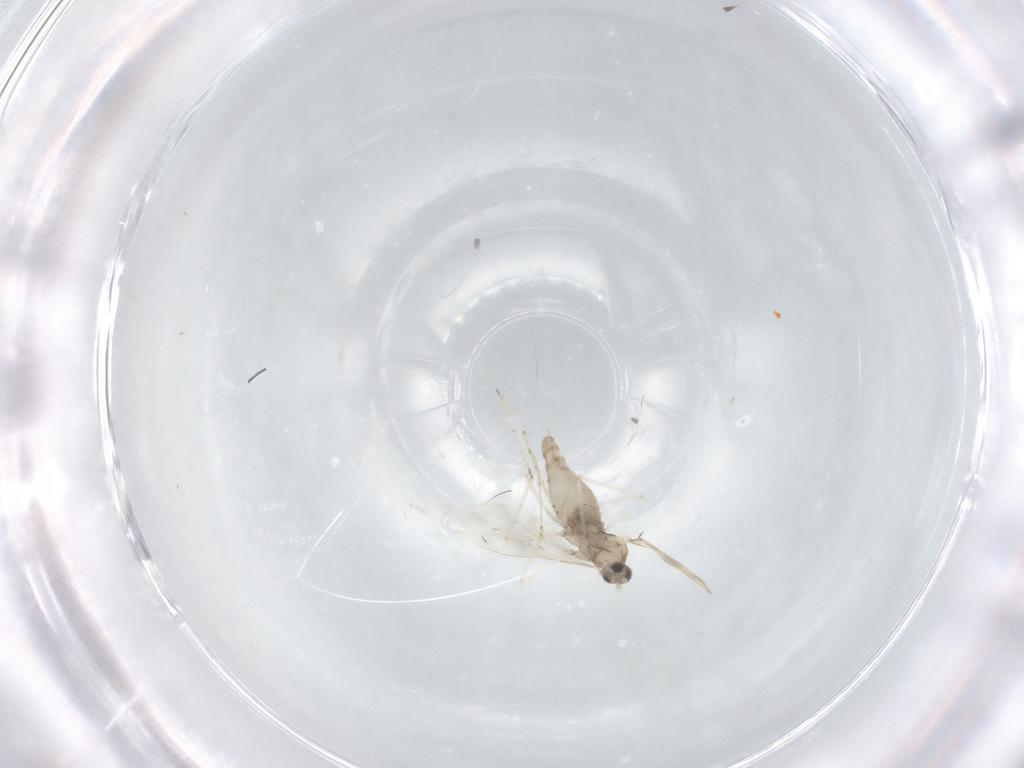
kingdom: Animalia
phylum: Arthropoda
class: Insecta
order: Diptera
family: Cecidomyiidae
